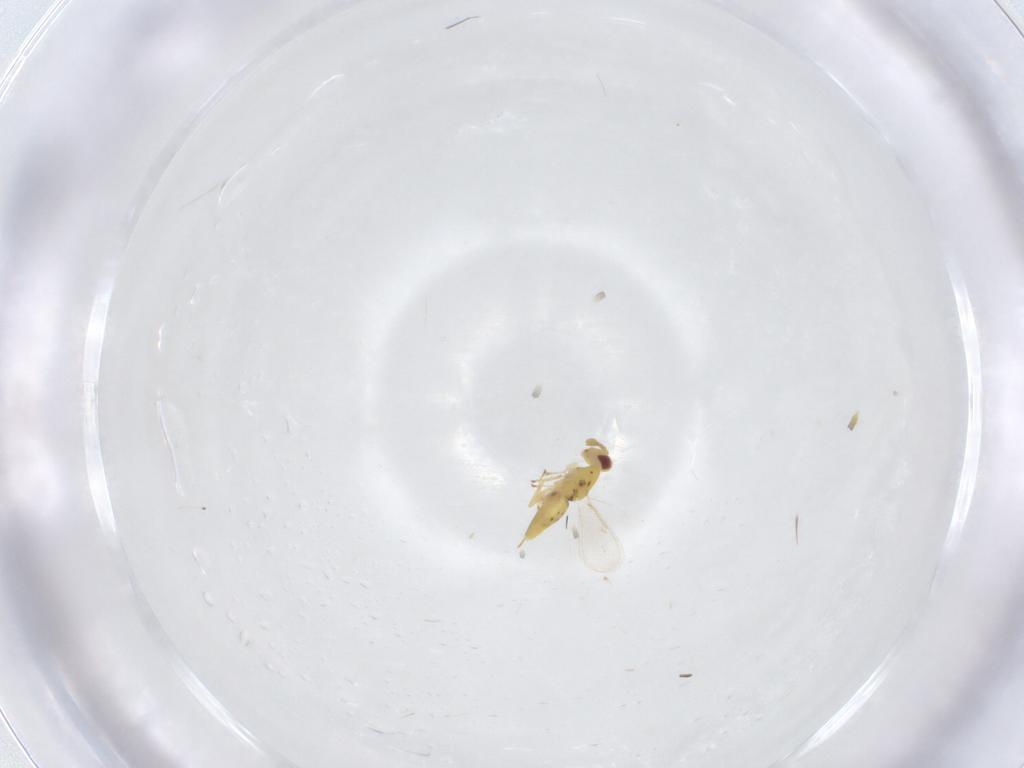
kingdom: Animalia
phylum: Arthropoda
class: Insecta
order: Hymenoptera
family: Eulophidae
